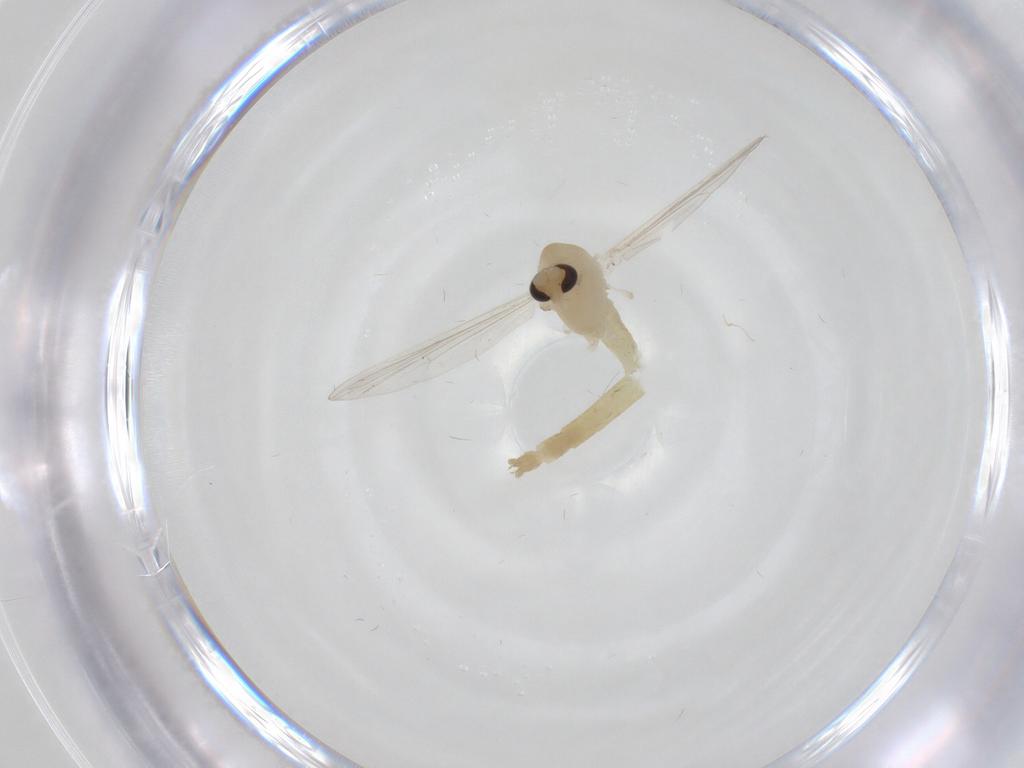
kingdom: Animalia
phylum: Arthropoda
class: Insecta
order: Diptera
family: Chironomidae
